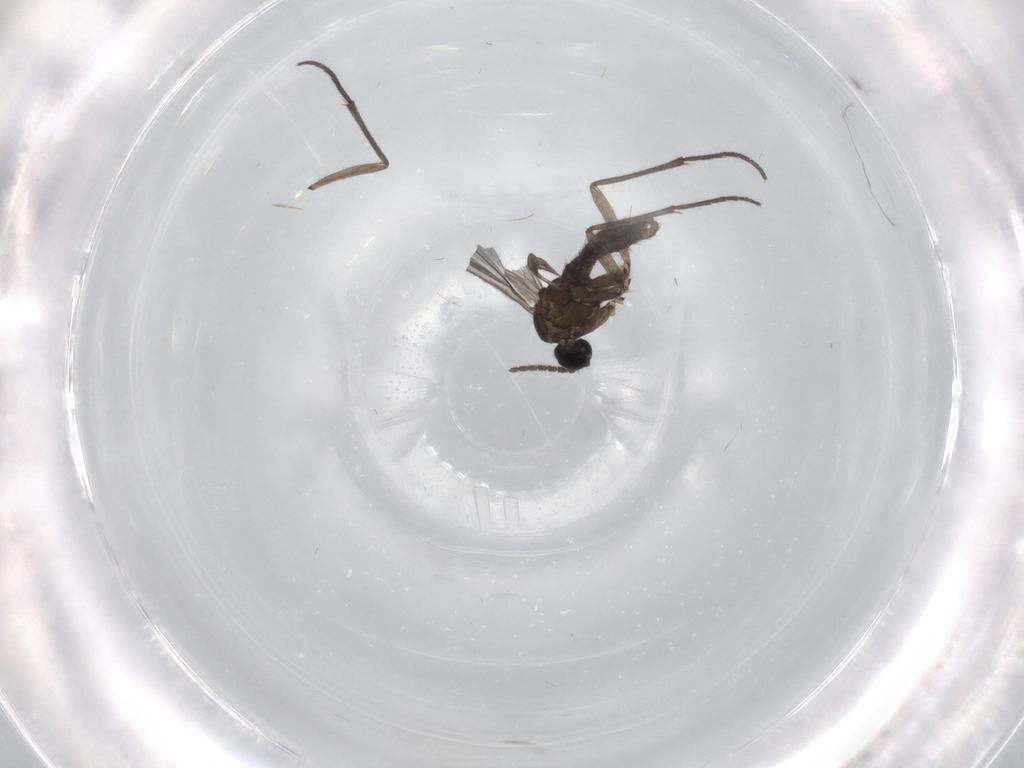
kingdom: Animalia
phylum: Arthropoda
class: Insecta
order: Diptera
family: Sciaridae
